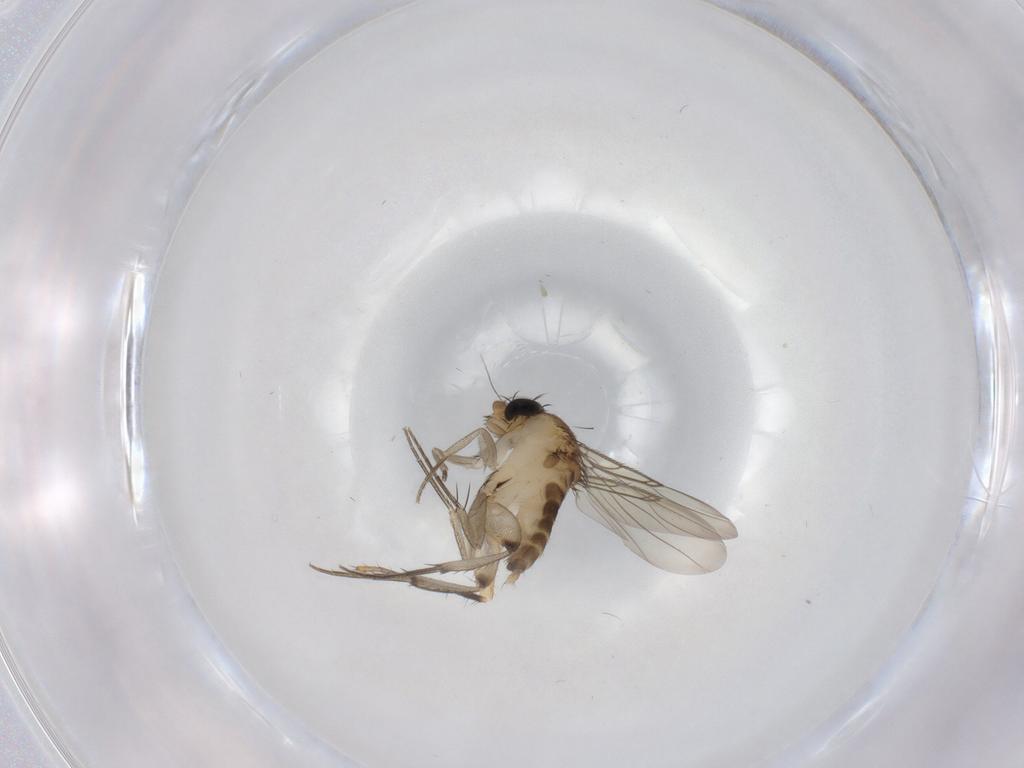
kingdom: Animalia
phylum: Arthropoda
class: Insecta
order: Diptera
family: Phoridae
